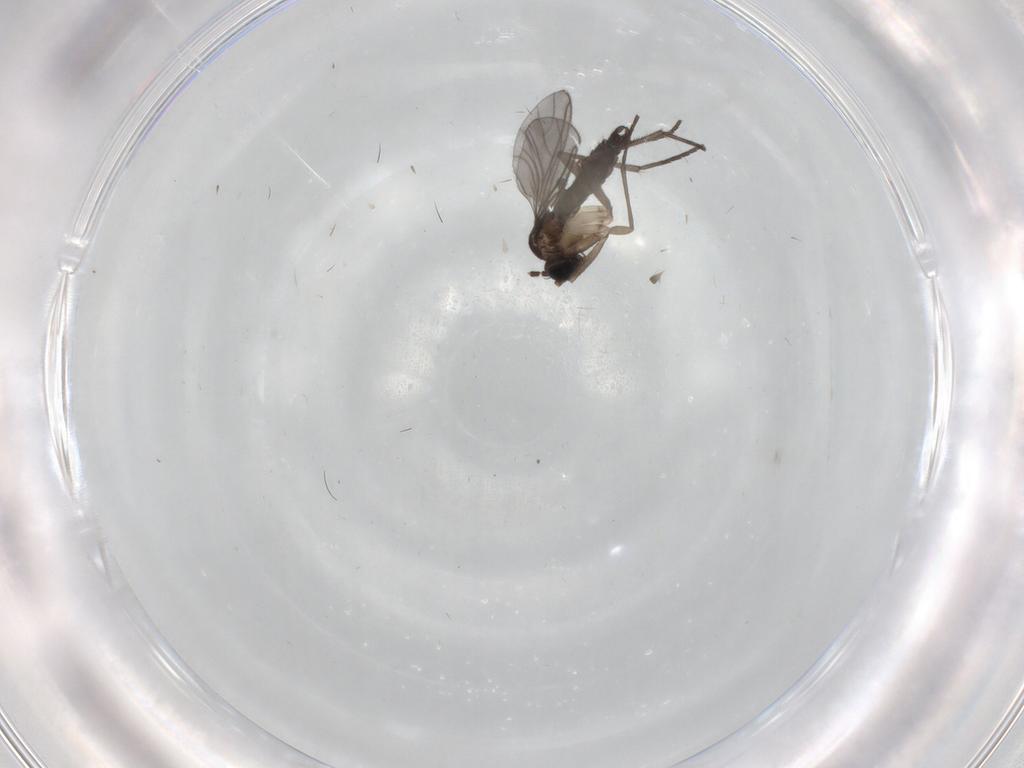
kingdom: Animalia
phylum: Arthropoda
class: Insecta
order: Diptera
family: Sciaridae
